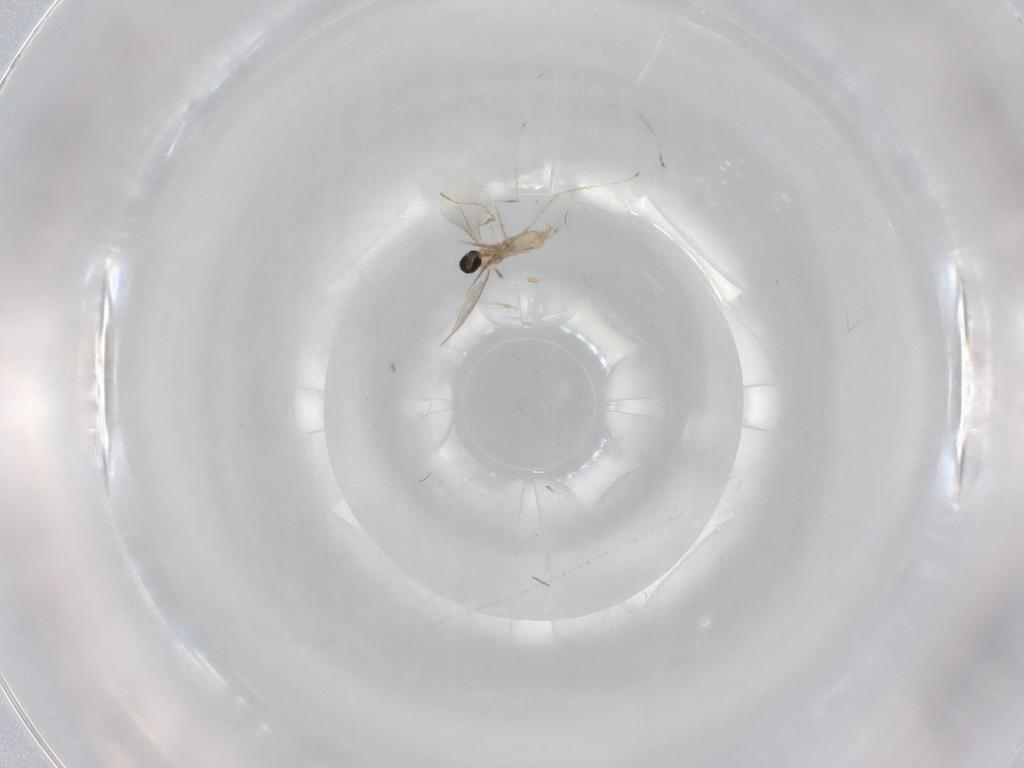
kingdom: Animalia
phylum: Arthropoda
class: Insecta
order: Diptera
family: Cecidomyiidae
